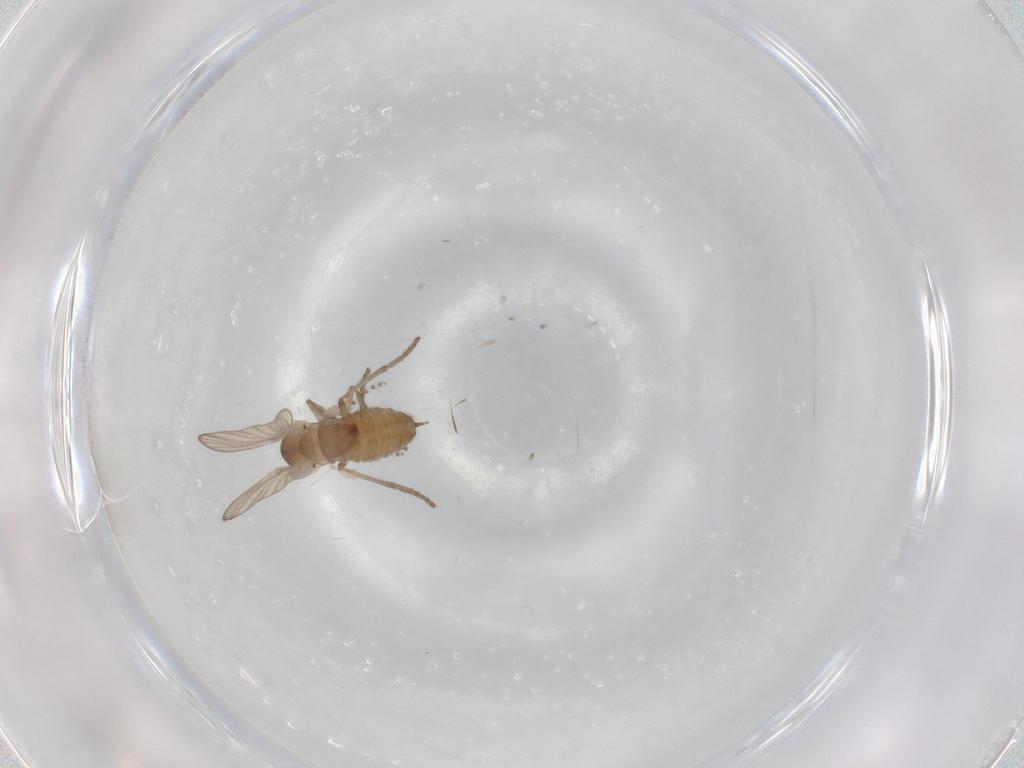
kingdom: Animalia
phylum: Arthropoda
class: Insecta
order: Diptera
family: Psychodidae
